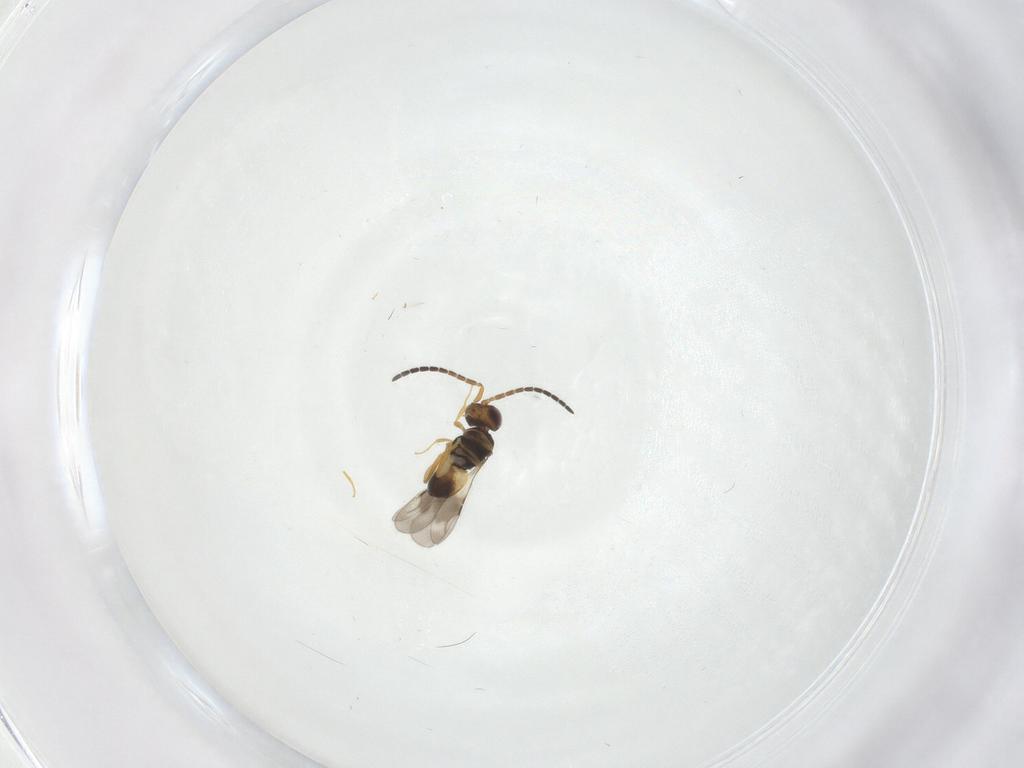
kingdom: Animalia
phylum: Arthropoda
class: Insecta
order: Hymenoptera
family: Ceraphronidae
